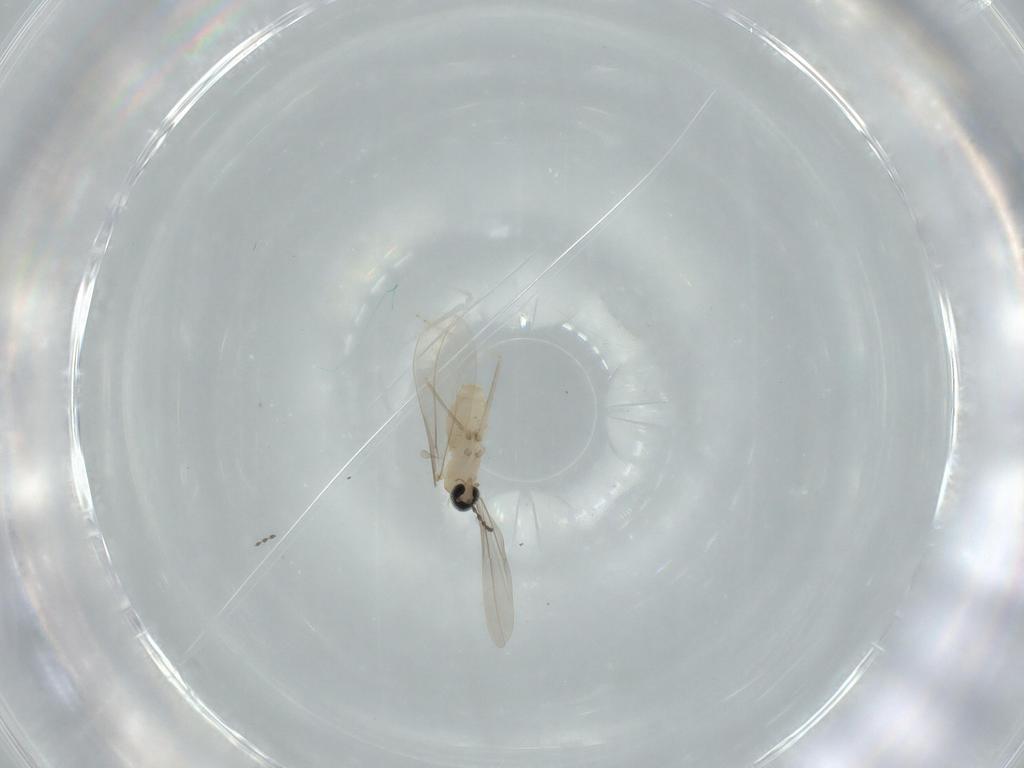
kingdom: Animalia
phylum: Arthropoda
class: Insecta
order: Diptera
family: Cecidomyiidae
